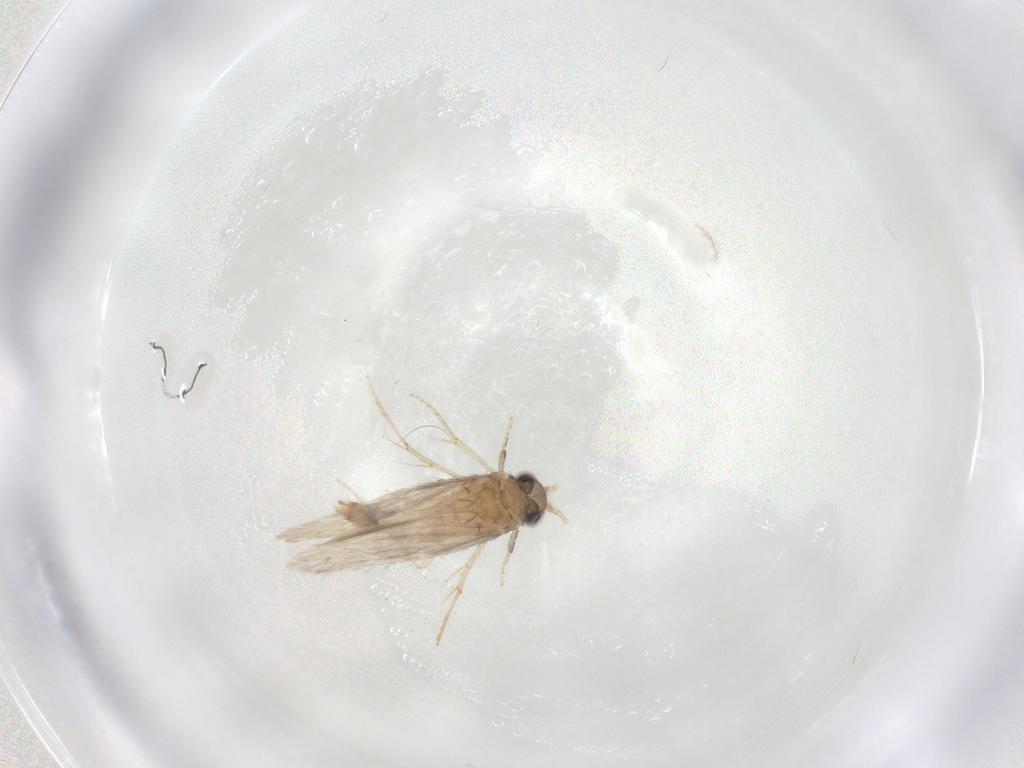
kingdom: Animalia
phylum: Arthropoda
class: Insecta
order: Trichoptera
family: Hydroptilidae
